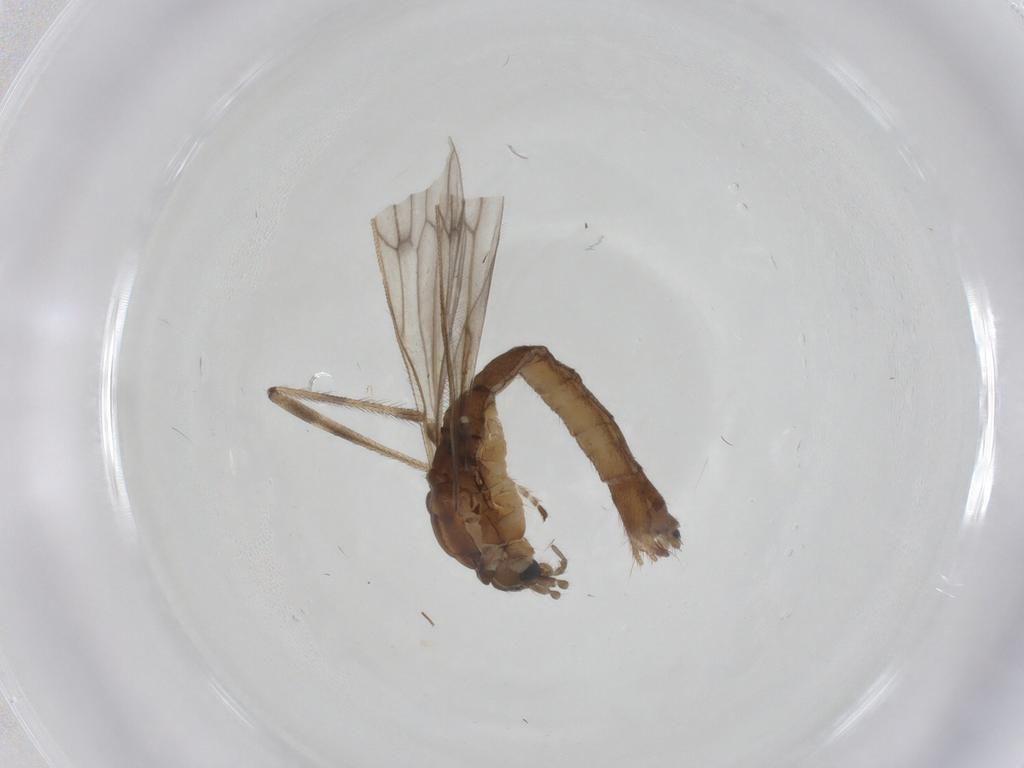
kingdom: Animalia
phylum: Arthropoda
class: Insecta
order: Diptera
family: Limoniidae
